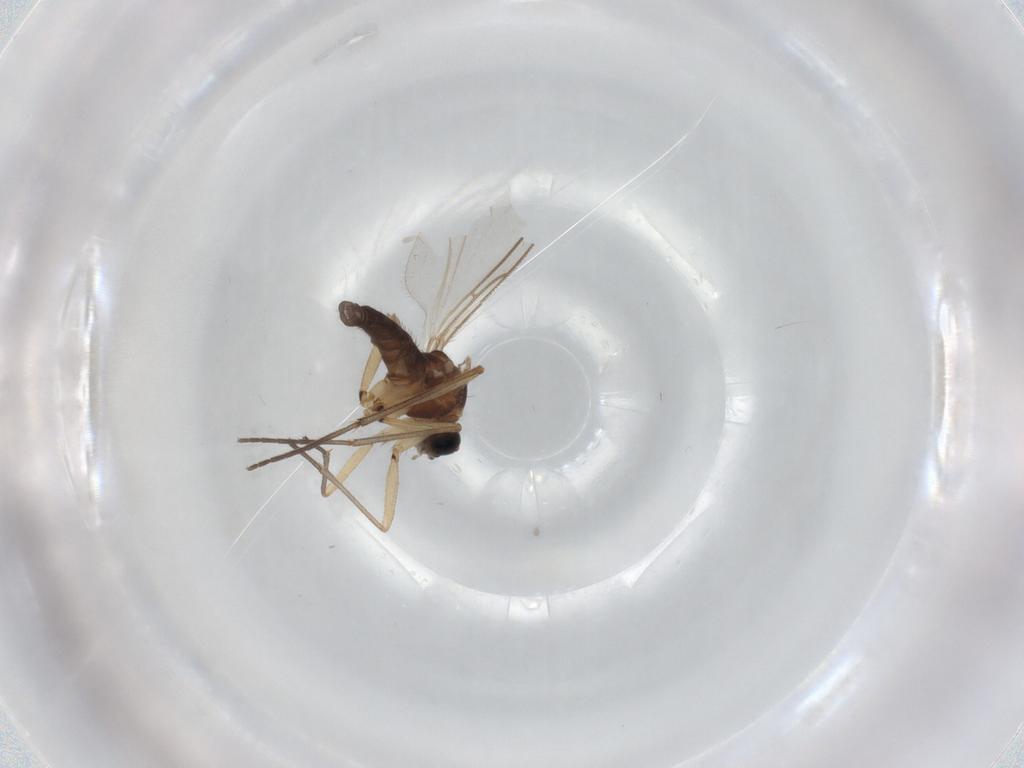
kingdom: Animalia
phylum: Arthropoda
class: Insecta
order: Diptera
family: Sciaridae
